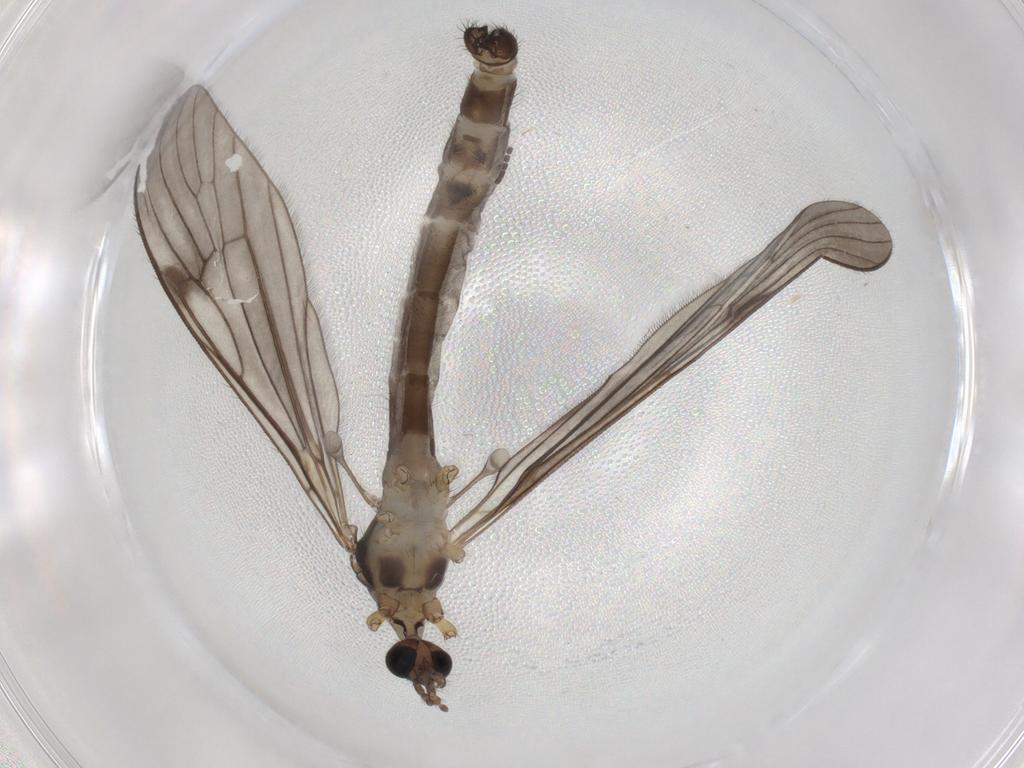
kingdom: Animalia
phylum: Arthropoda
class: Insecta
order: Diptera
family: Limoniidae
